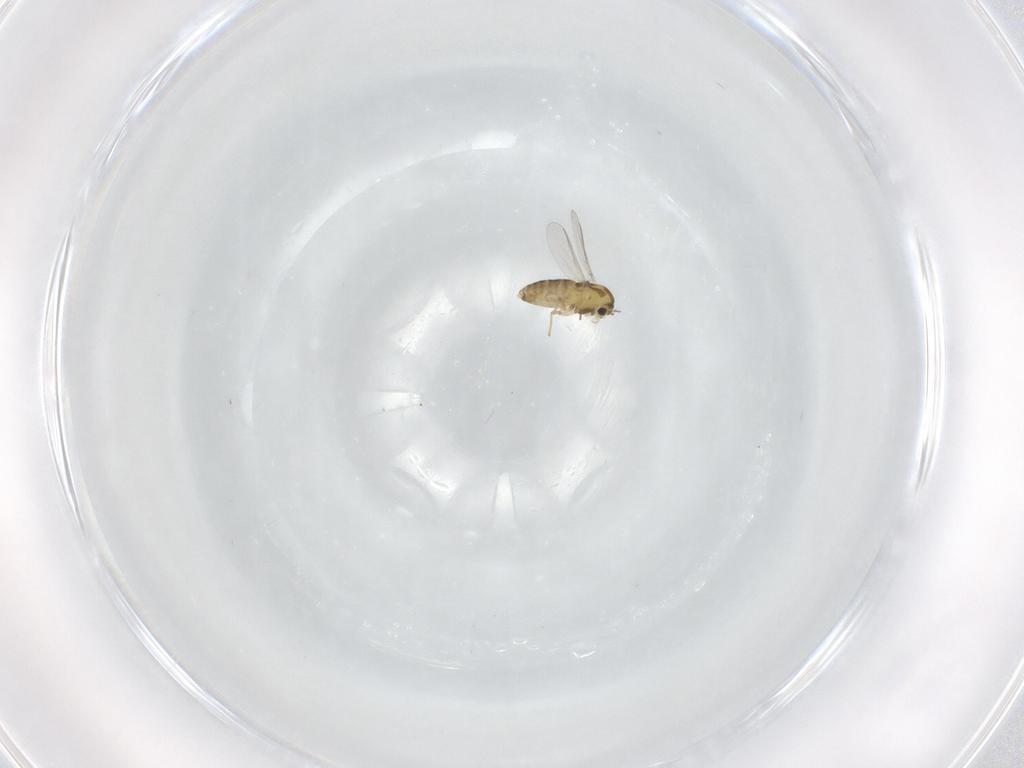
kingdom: Animalia
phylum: Arthropoda
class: Insecta
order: Diptera
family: Chironomidae
